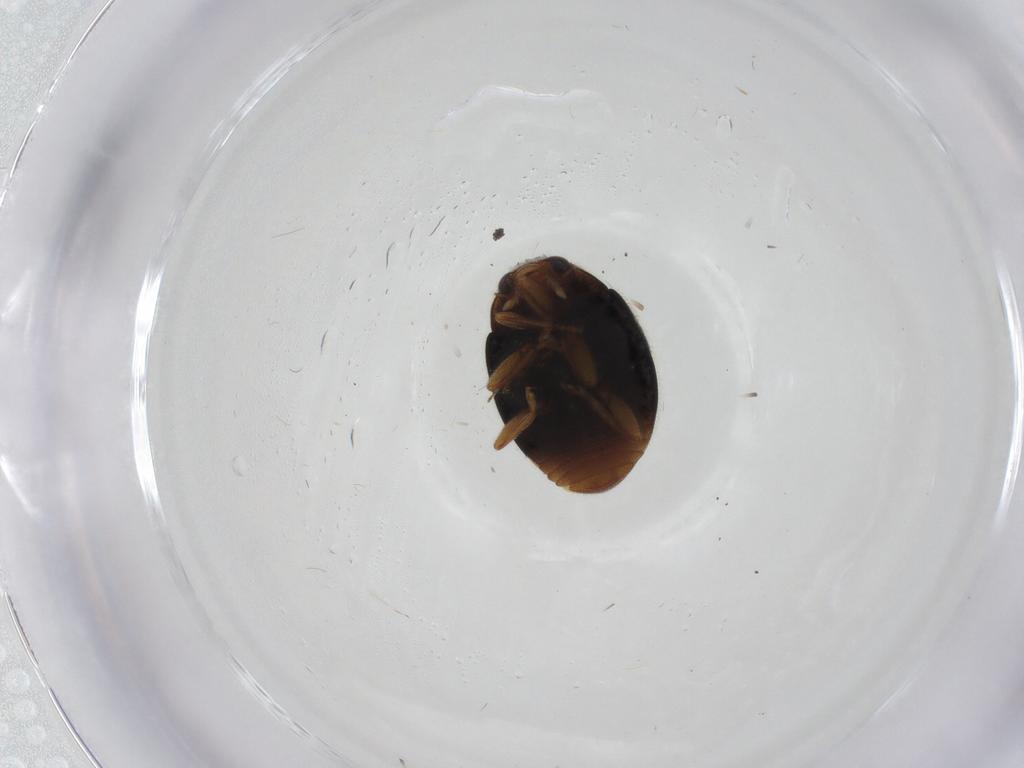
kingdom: Animalia
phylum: Arthropoda
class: Insecta
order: Coleoptera
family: Coccinellidae
